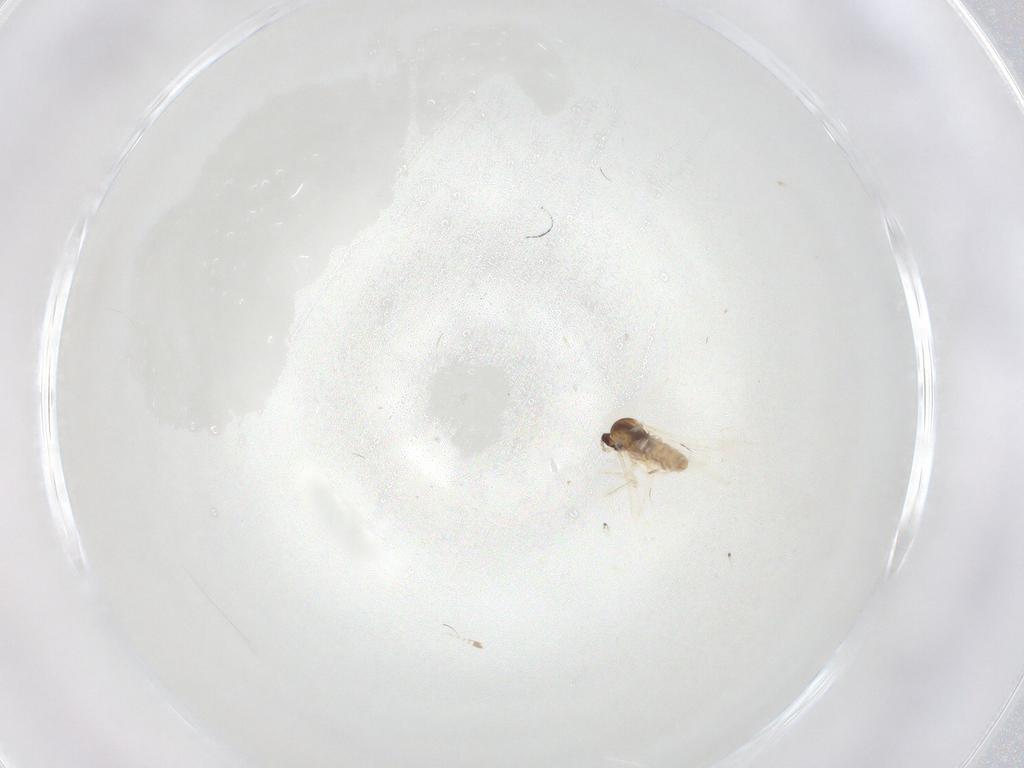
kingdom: Animalia
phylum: Arthropoda
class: Insecta
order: Diptera
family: Cecidomyiidae
